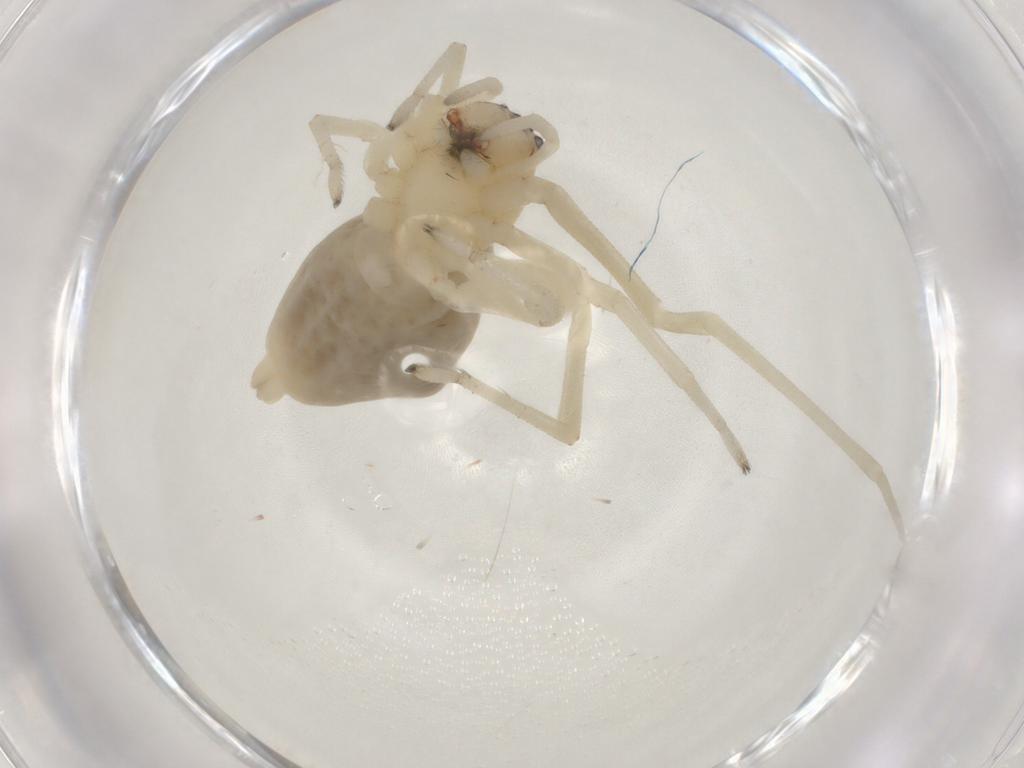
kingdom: Animalia
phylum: Arthropoda
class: Arachnida
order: Araneae
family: Cheiracanthiidae
